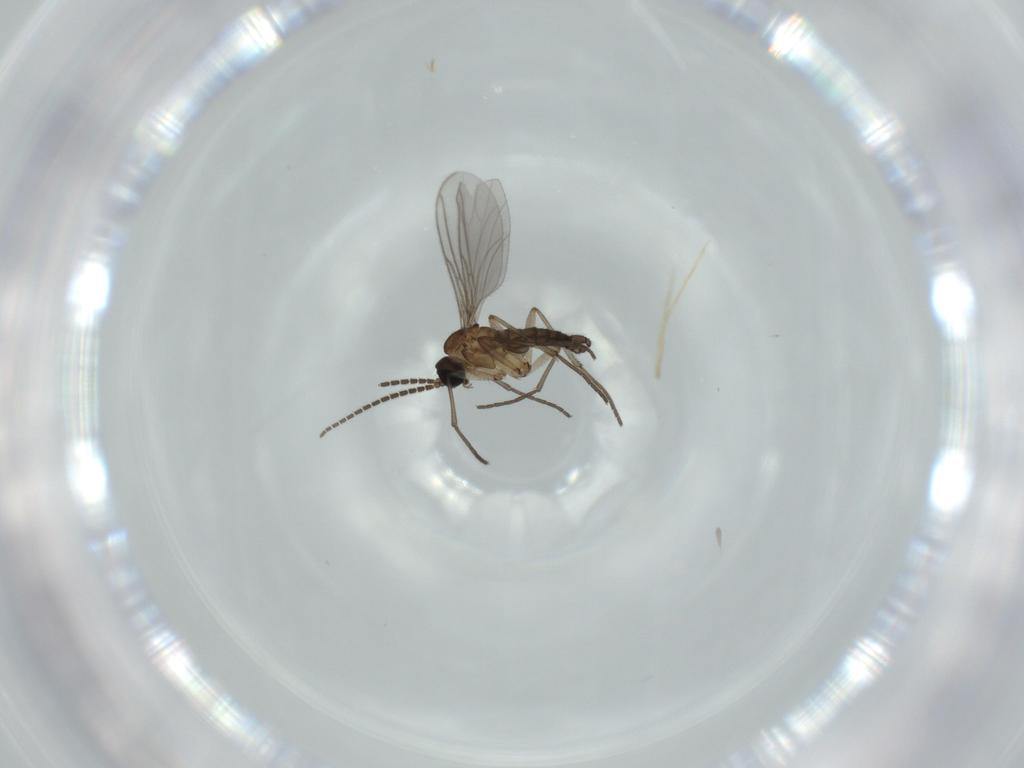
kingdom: Animalia
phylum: Arthropoda
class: Insecta
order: Diptera
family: Sciaridae
